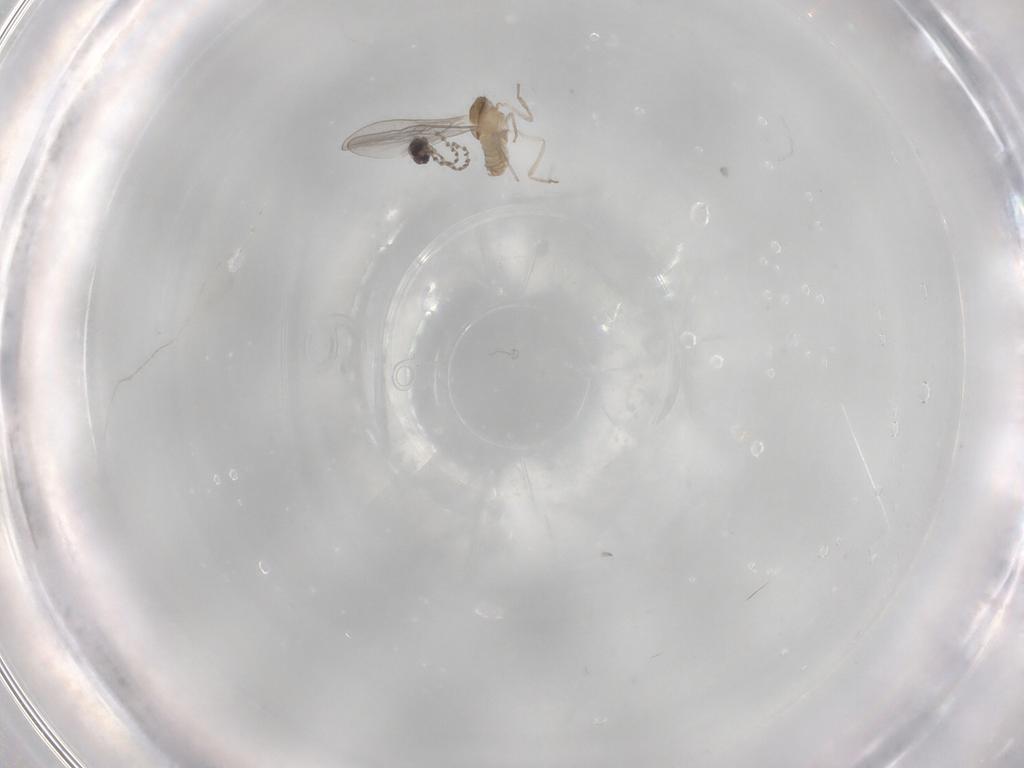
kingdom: Animalia
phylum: Arthropoda
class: Insecta
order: Diptera
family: Cecidomyiidae
